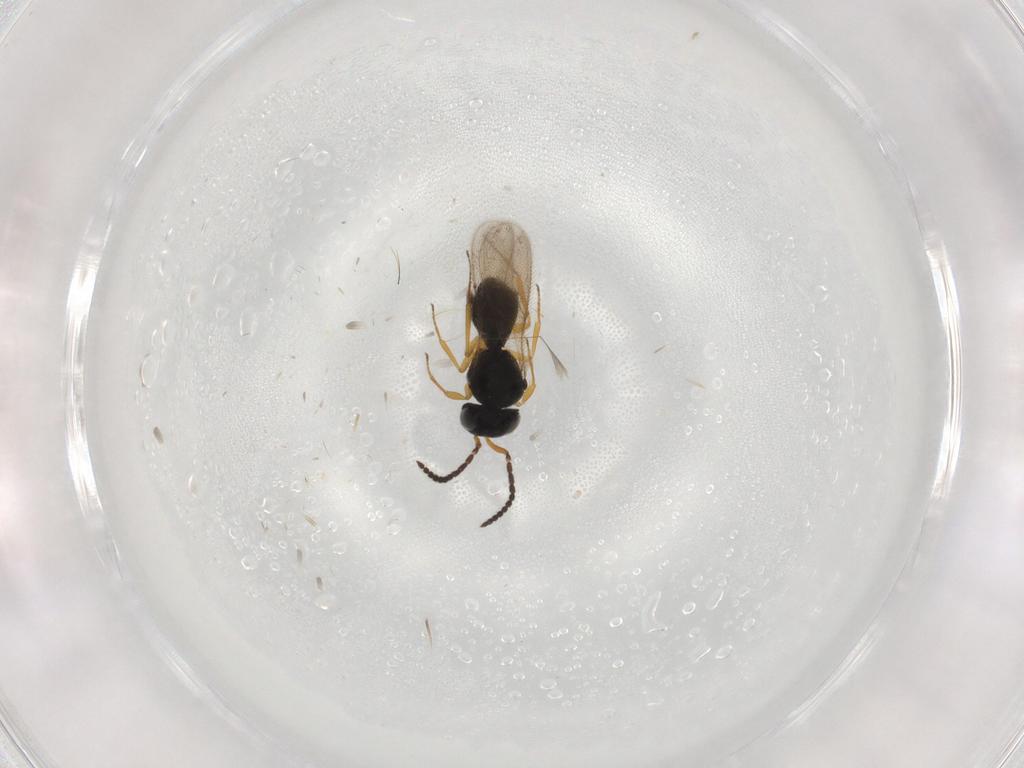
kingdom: Animalia
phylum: Arthropoda
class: Insecta
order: Hymenoptera
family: Scelionidae
